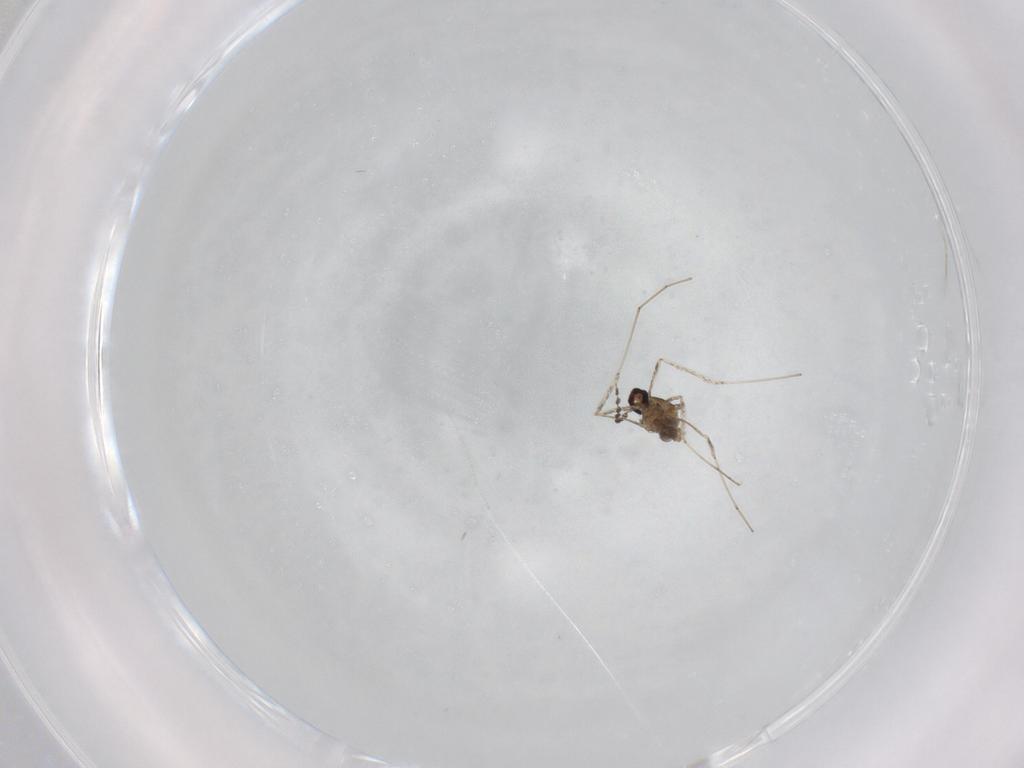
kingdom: Animalia
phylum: Arthropoda
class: Insecta
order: Diptera
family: Cecidomyiidae
